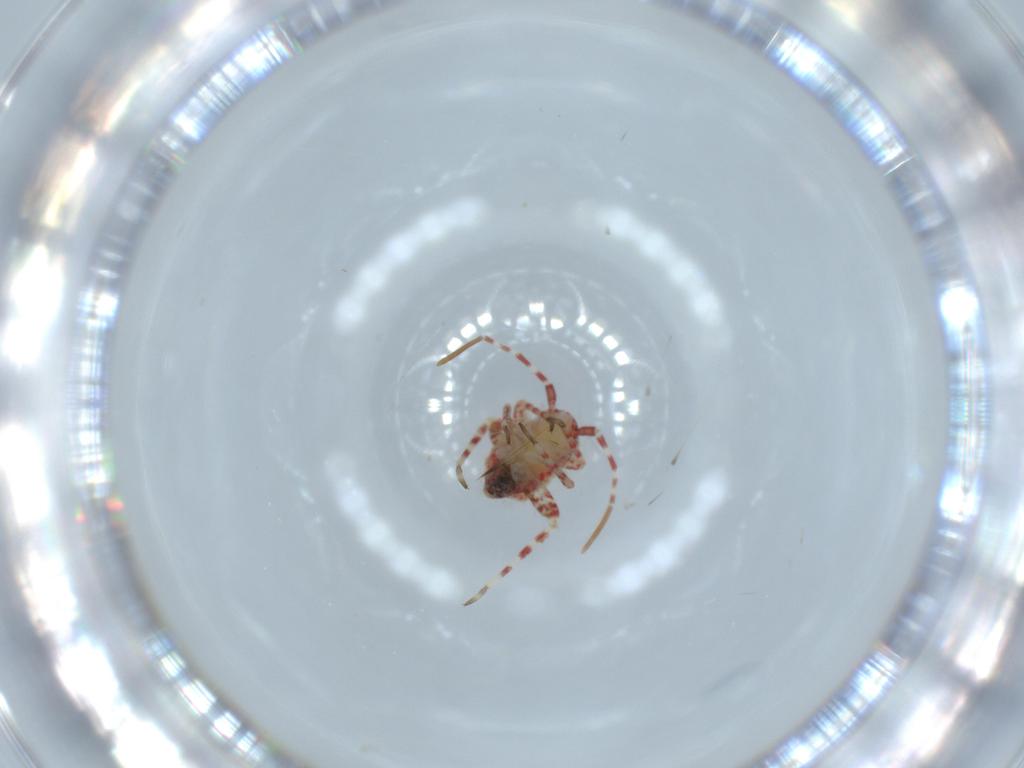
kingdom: Animalia
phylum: Arthropoda
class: Insecta
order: Hemiptera
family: Miridae
